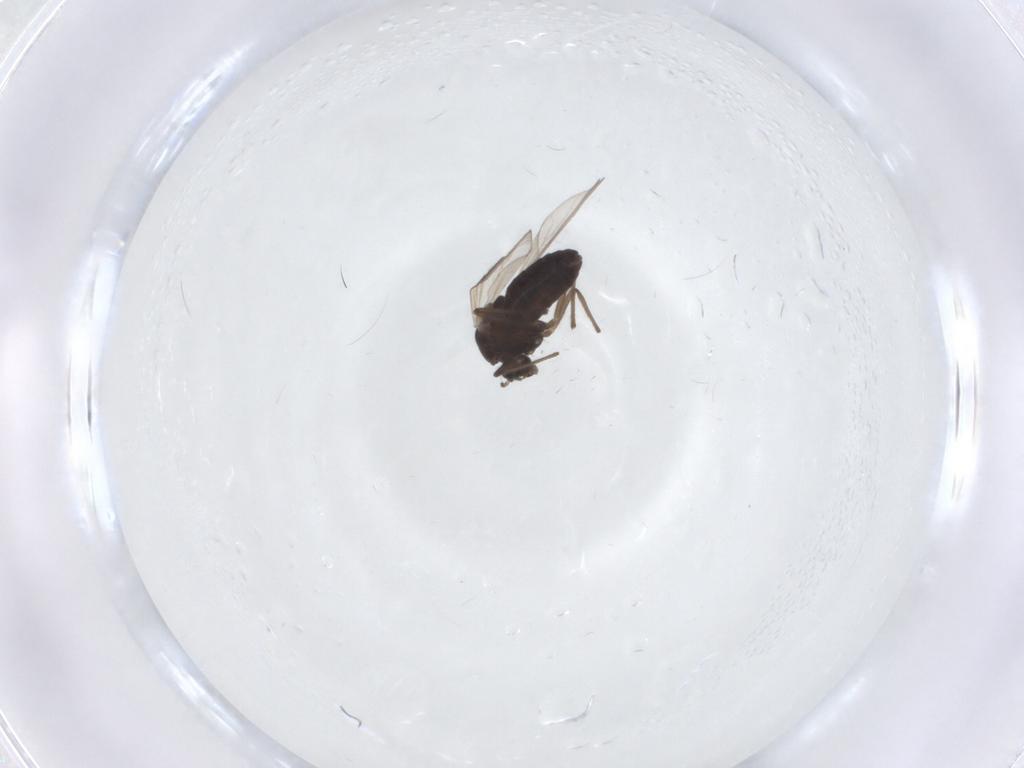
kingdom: Animalia
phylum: Arthropoda
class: Insecta
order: Diptera
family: Chironomidae
